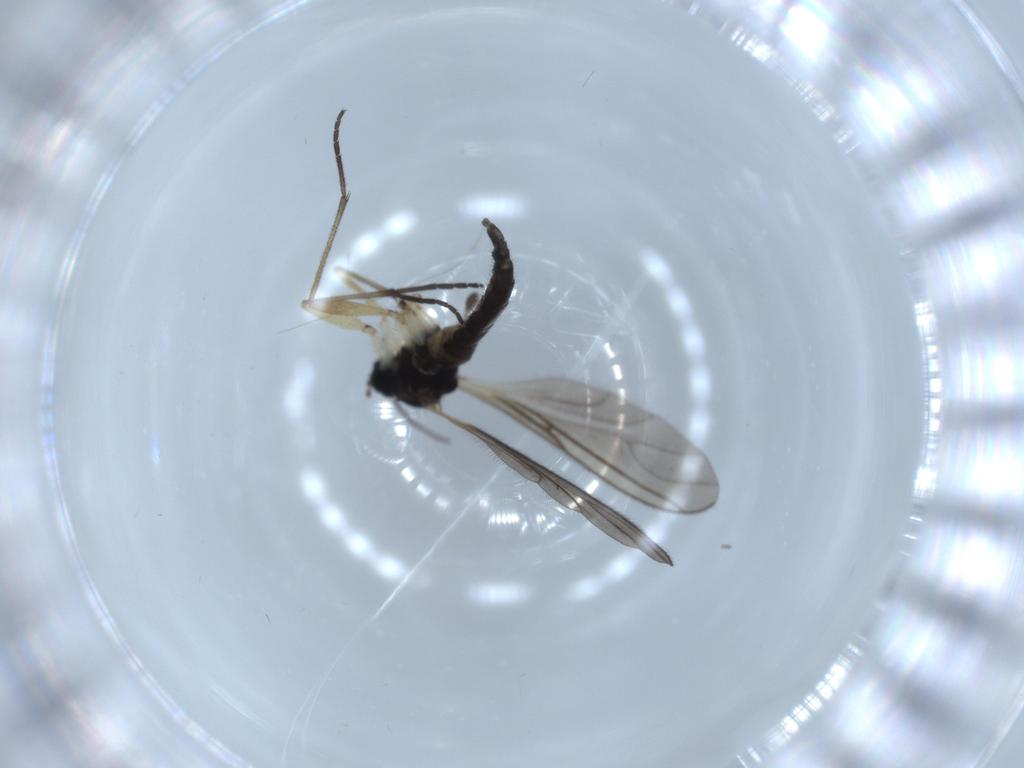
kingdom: Animalia
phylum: Arthropoda
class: Insecta
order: Diptera
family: Sciaridae
